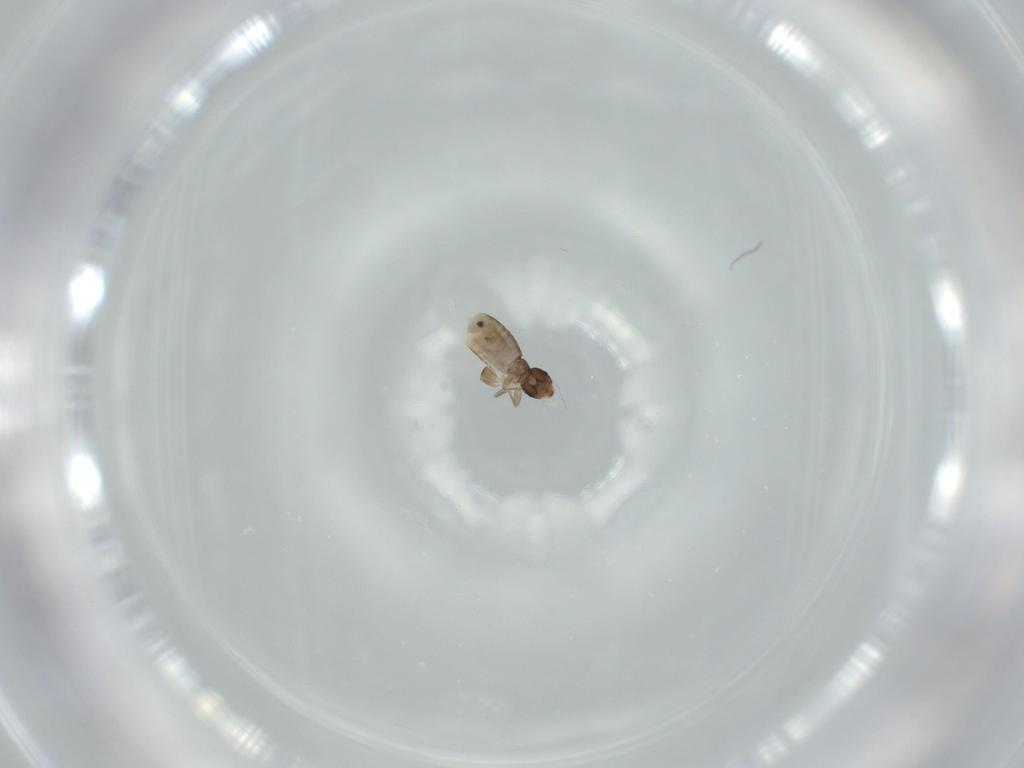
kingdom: Animalia
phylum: Arthropoda
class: Insecta
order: Psocodea
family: Liposcelididae
